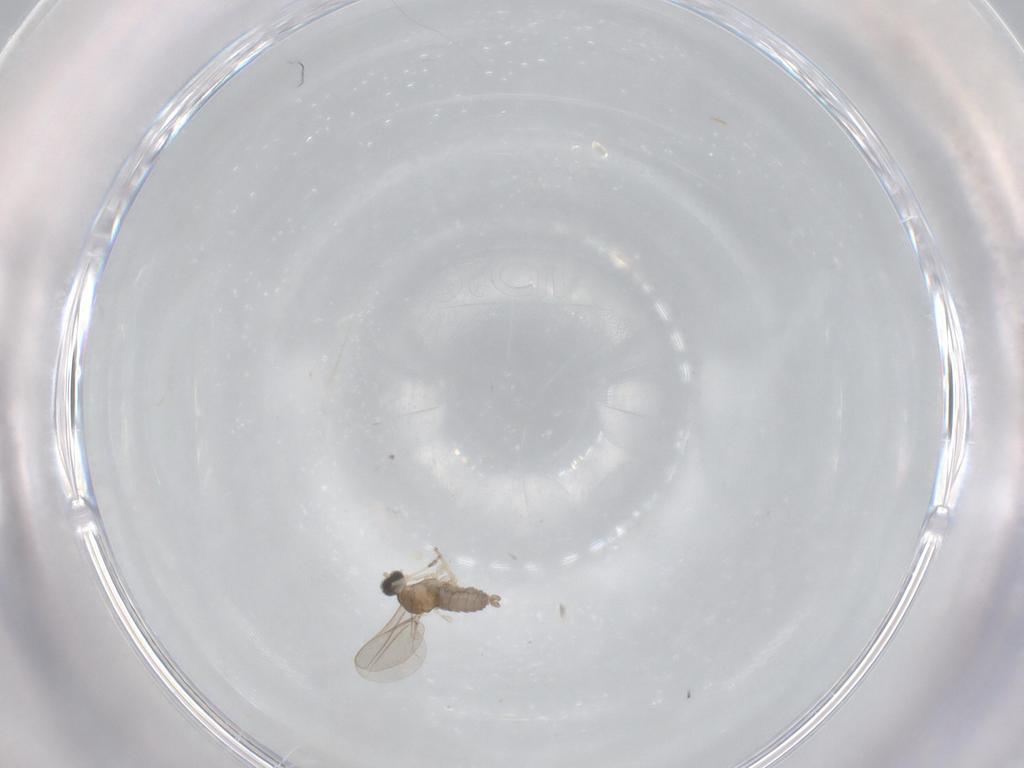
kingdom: Animalia
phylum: Arthropoda
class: Insecta
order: Diptera
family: Cecidomyiidae
